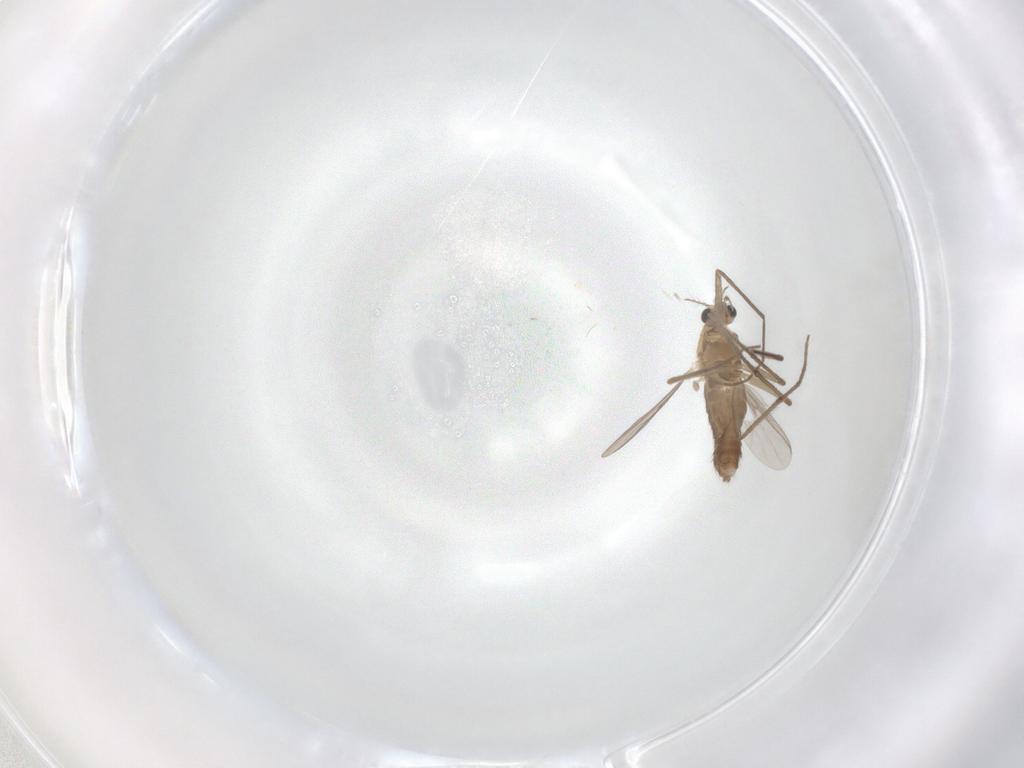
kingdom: Animalia
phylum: Arthropoda
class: Insecta
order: Diptera
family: Chironomidae
